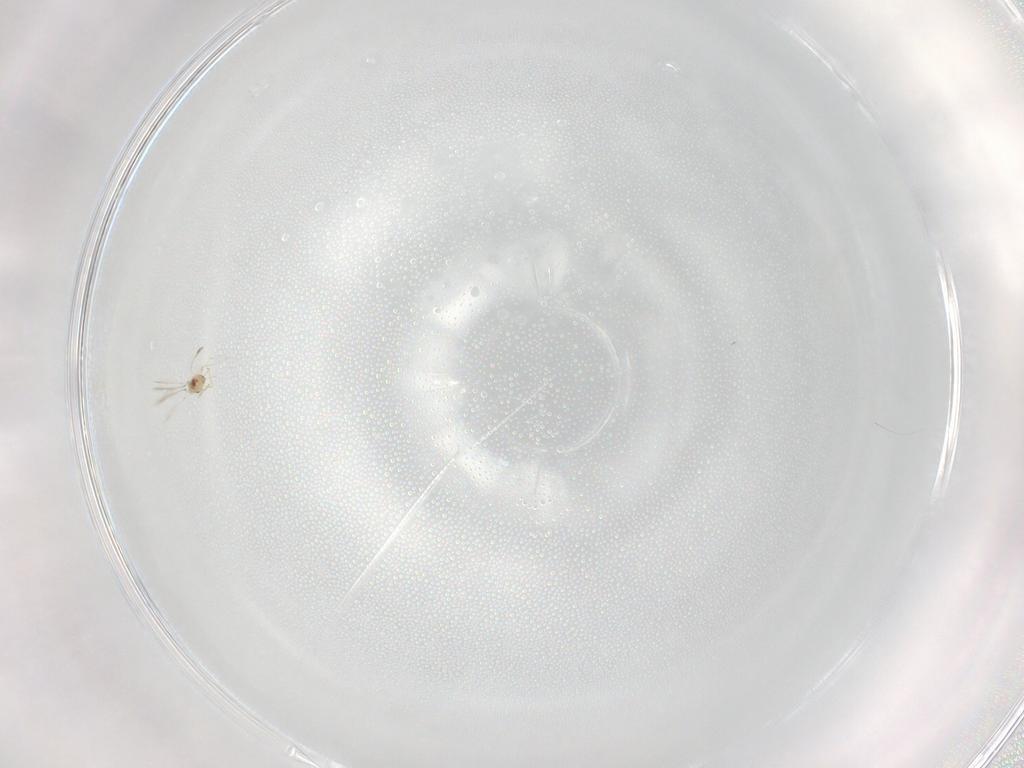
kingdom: Animalia
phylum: Arthropoda
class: Insecta
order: Hymenoptera
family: Mymaridae
